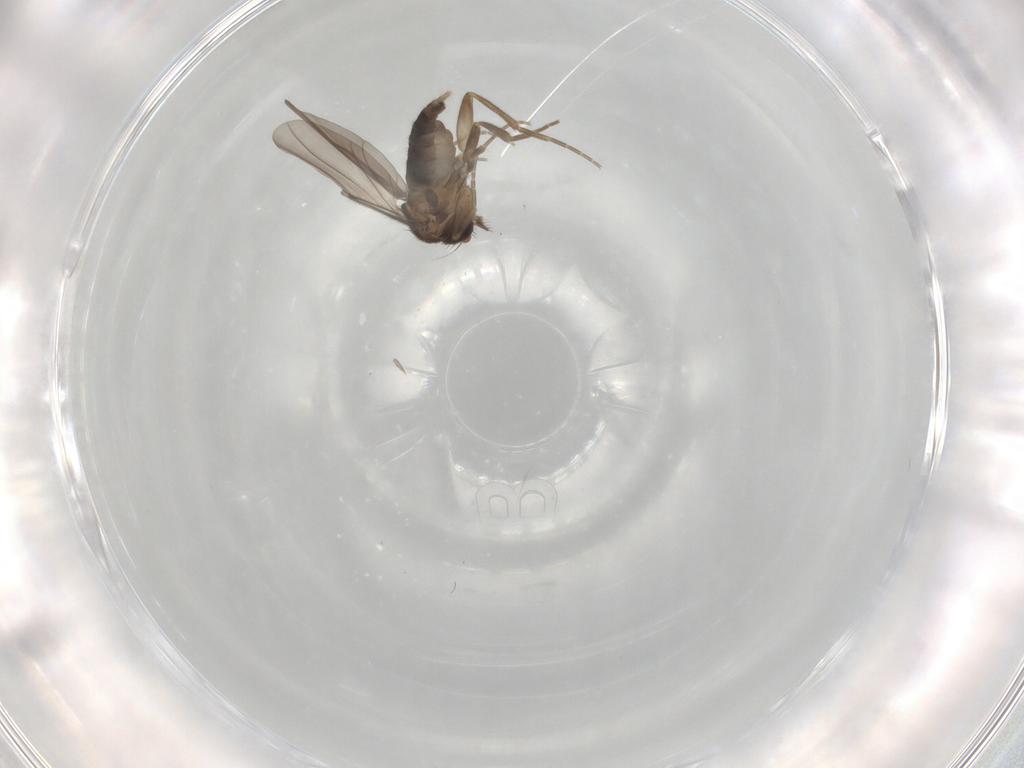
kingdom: Animalia
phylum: Arthropoda
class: Insecta
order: Diptera
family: Phoridae
